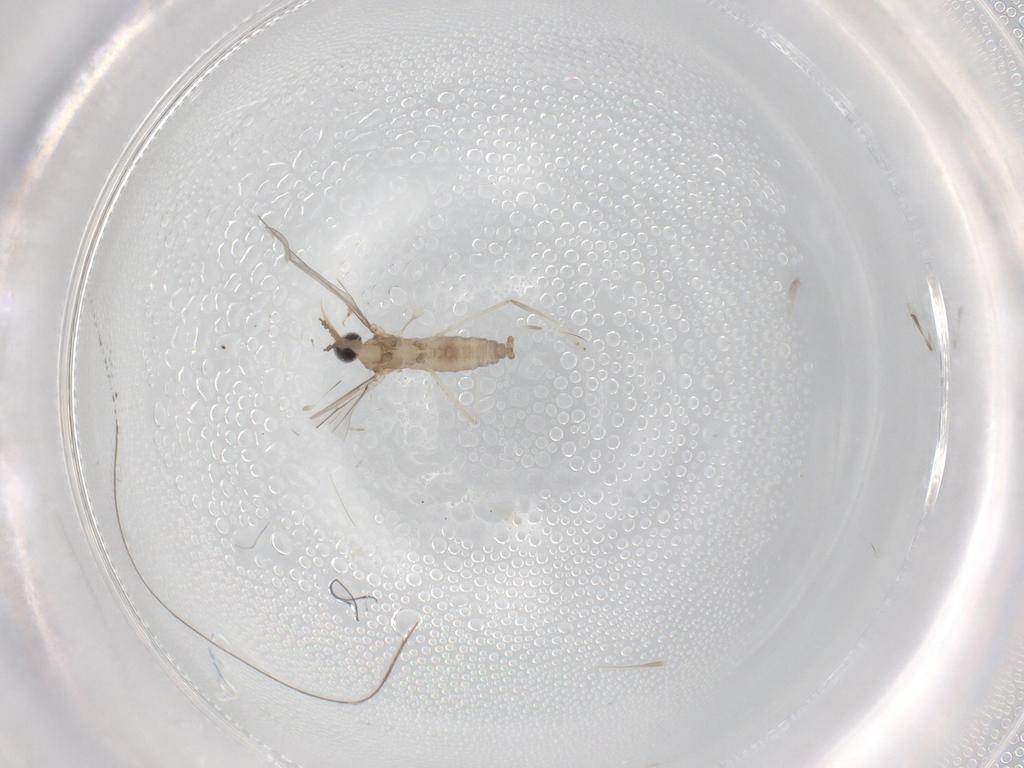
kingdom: Animalia
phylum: Arthropoda
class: Insecta
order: Diptera
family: Cecidomyiidae
